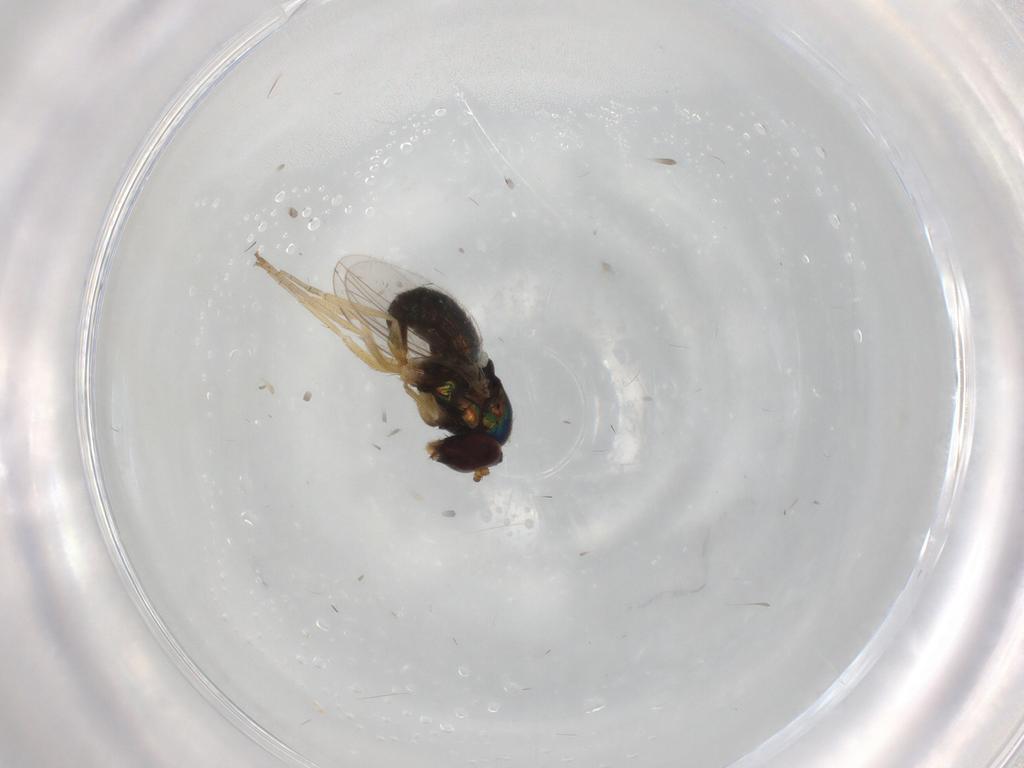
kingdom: Animalia
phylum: Arthropoda
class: Insecta
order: Diptera
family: Dolichopodidae
